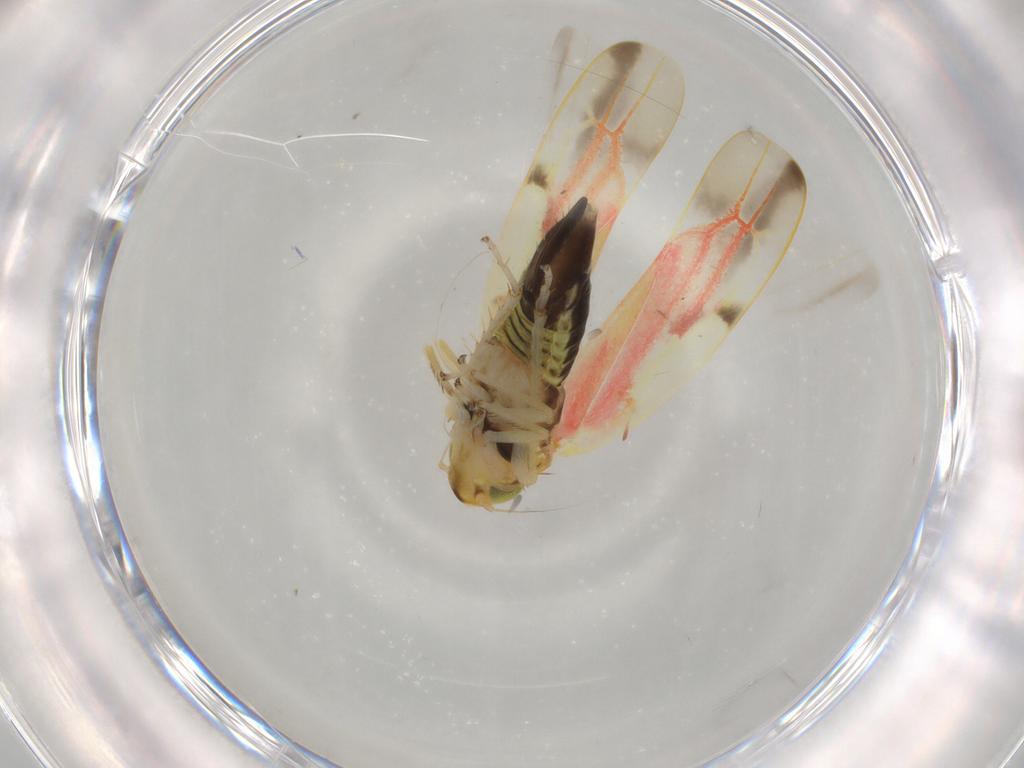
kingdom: Animalia
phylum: Arthropoda
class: Insecta
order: Hemiptera
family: Cicadellidae
